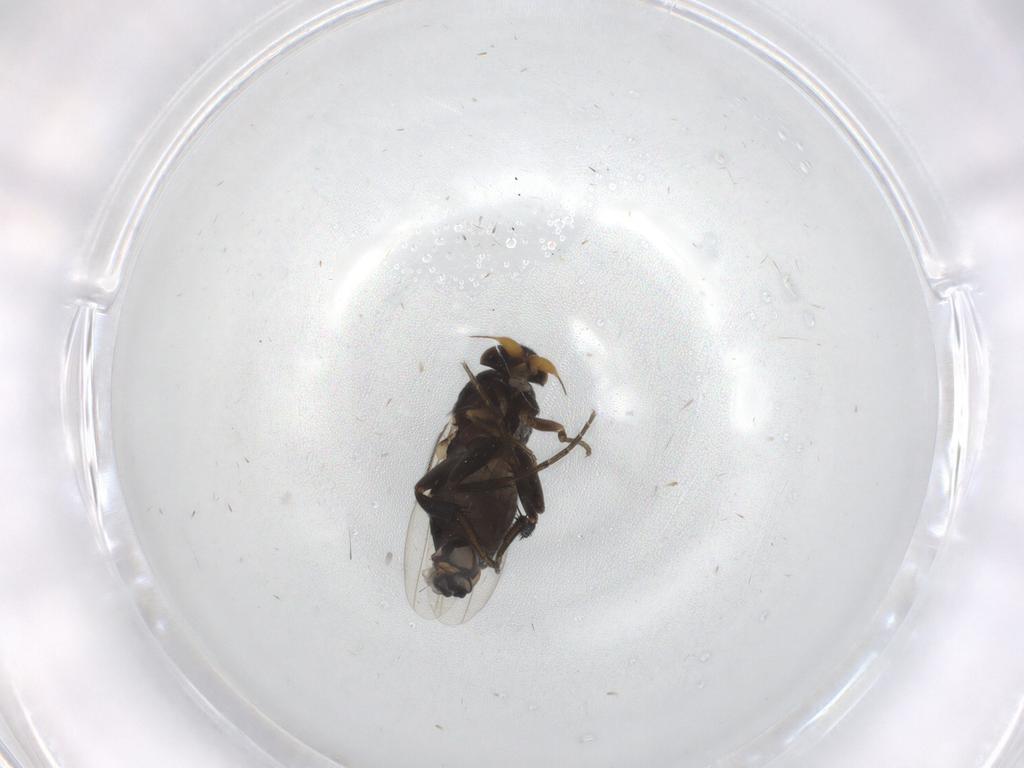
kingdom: Animalia
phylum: Arthropoda
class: Insecta
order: Diptera
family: Phoridae
